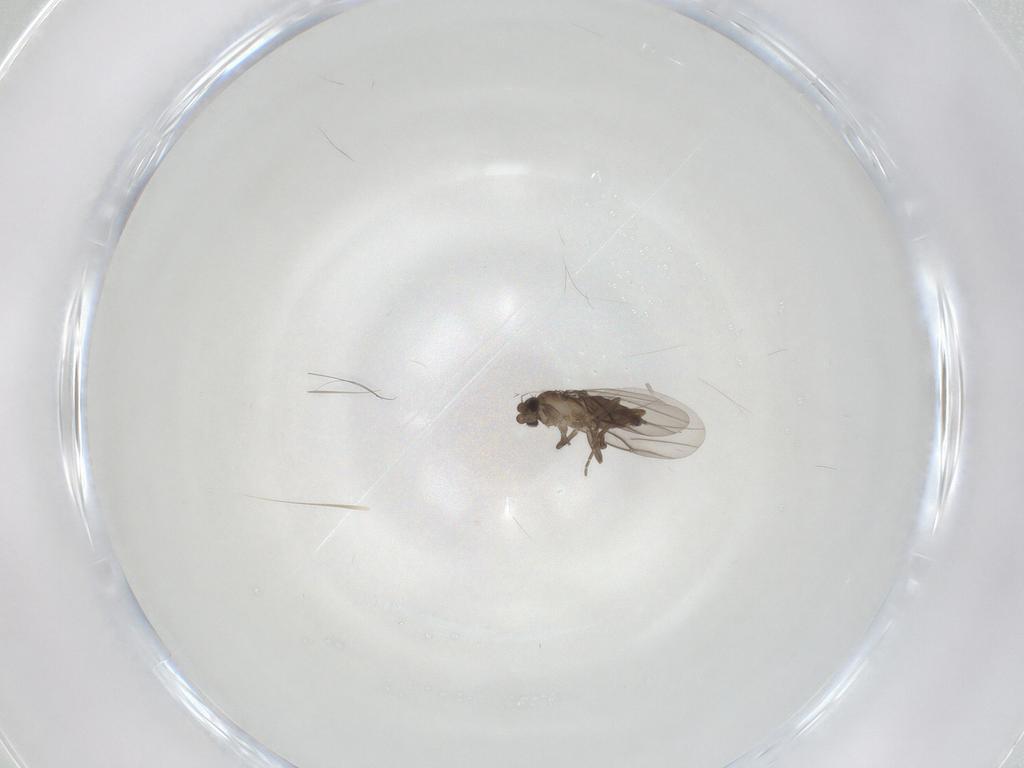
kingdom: Animalia
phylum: Arthropoda
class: Insecta
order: Diptera
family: Phoridae
